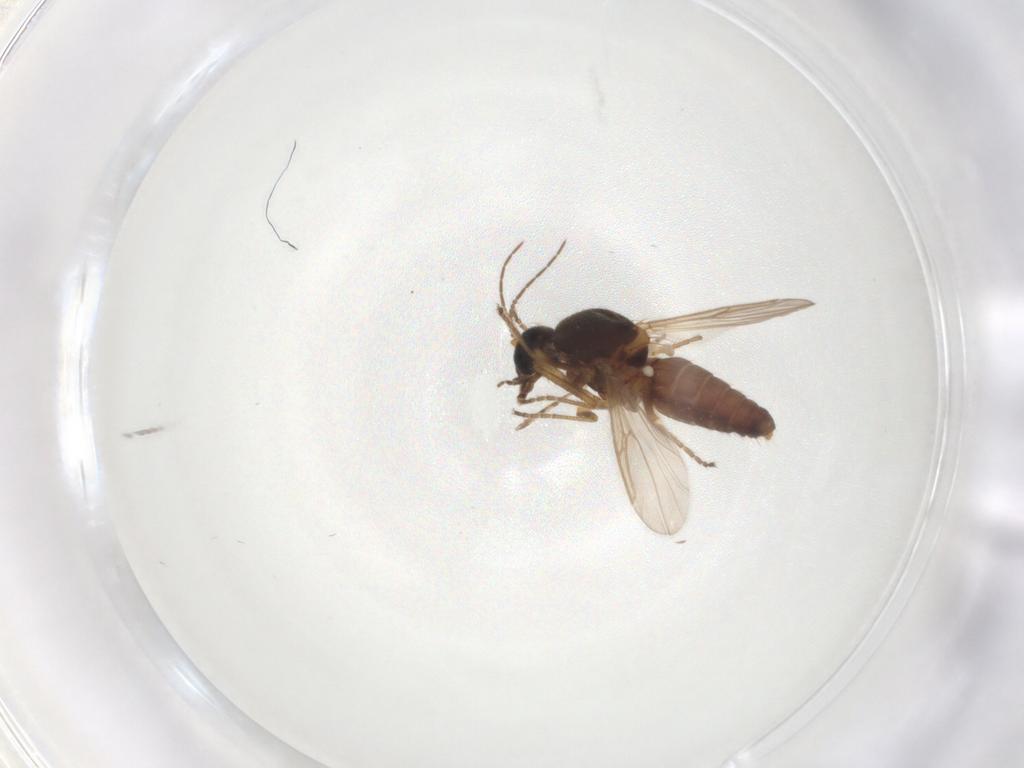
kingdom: Animalia
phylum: Arthropoda
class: Insecta
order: Diptera
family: Ceratopogonidae
